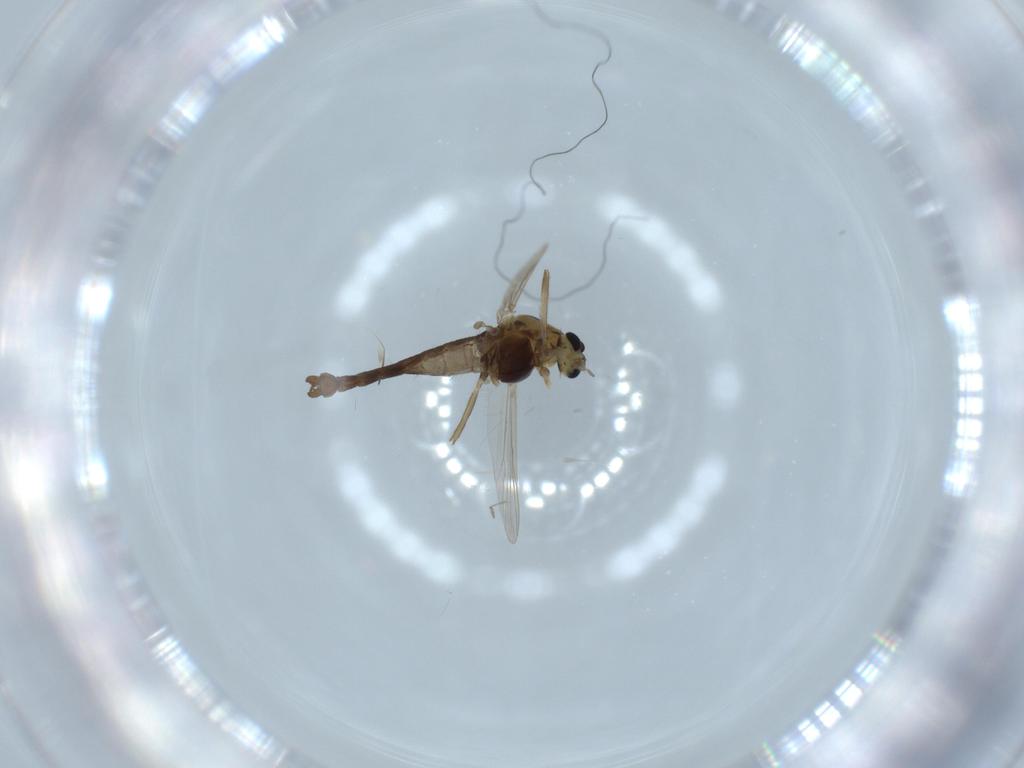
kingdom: Animalia
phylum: Arthropoda
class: Insecta
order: Diptera
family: Cecidomyiidae
